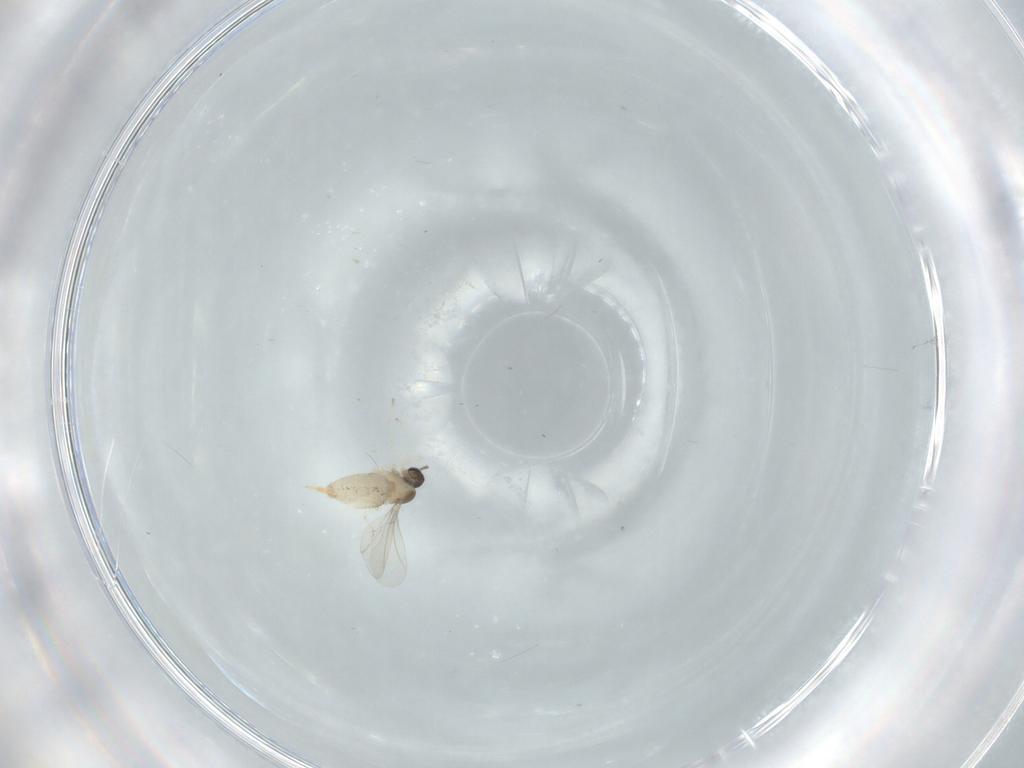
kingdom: Animalia
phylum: Arthropoda
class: Insecta
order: Diptera
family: Cecidomyiidae
